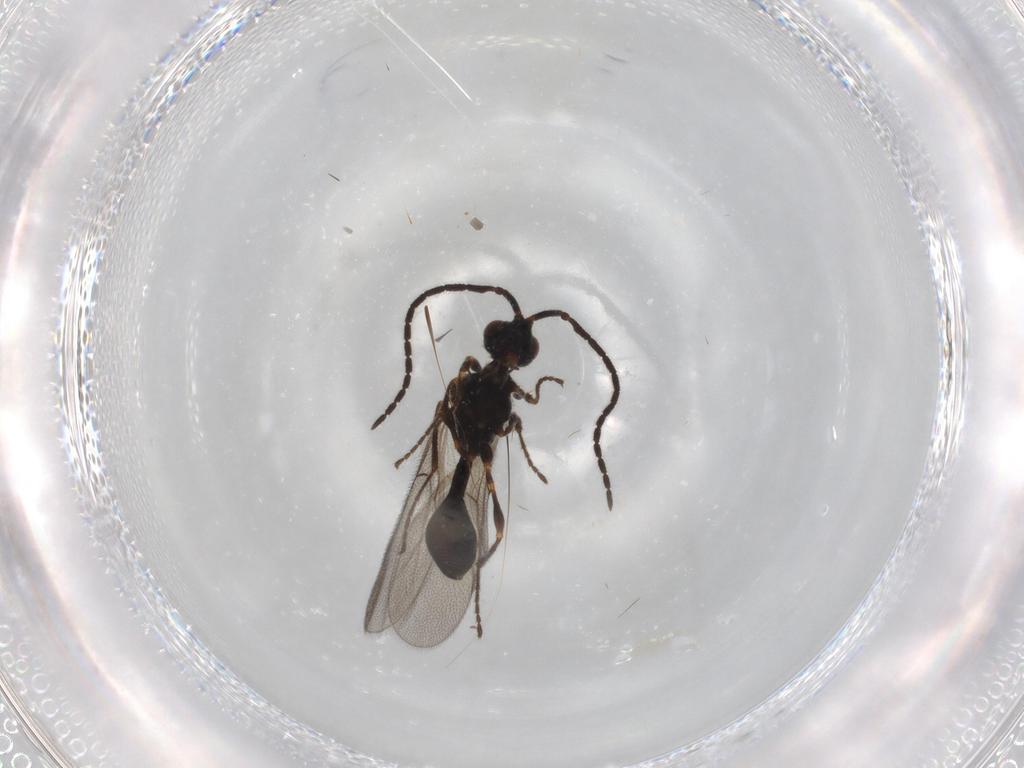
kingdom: Animalia
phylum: Arthropoda
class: Insecta
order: Hymenoptera
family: Diapriidae
